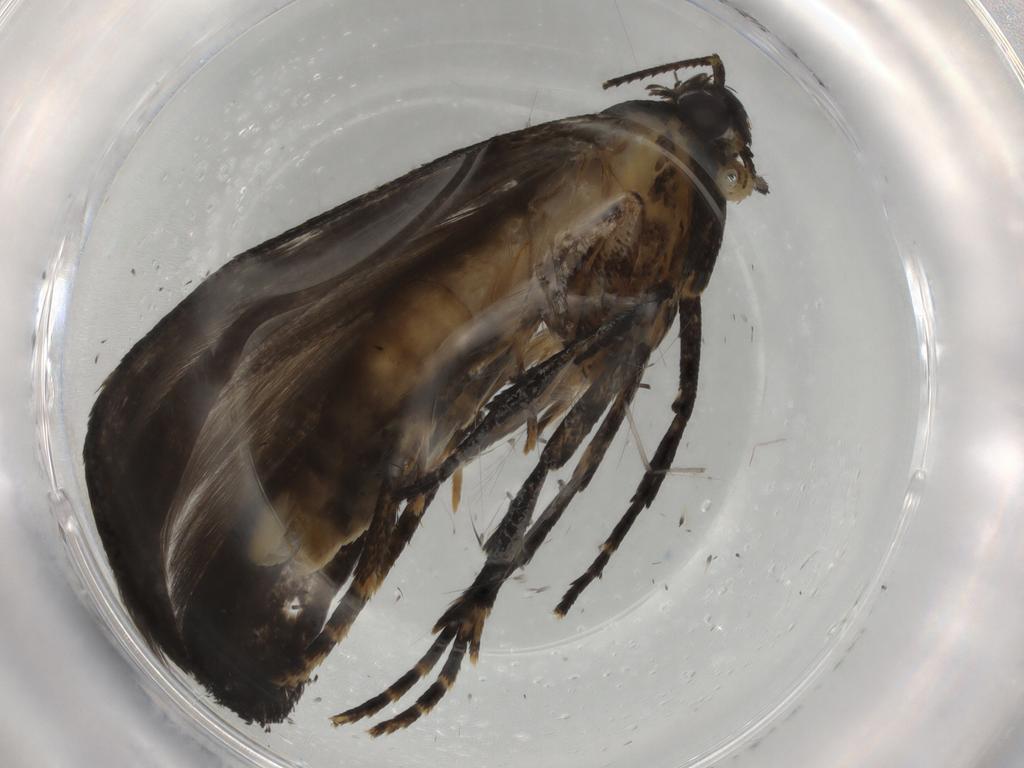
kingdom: Animalia
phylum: Arthropoda
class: Insecta
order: Lepidoptera
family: Gelechiidae
